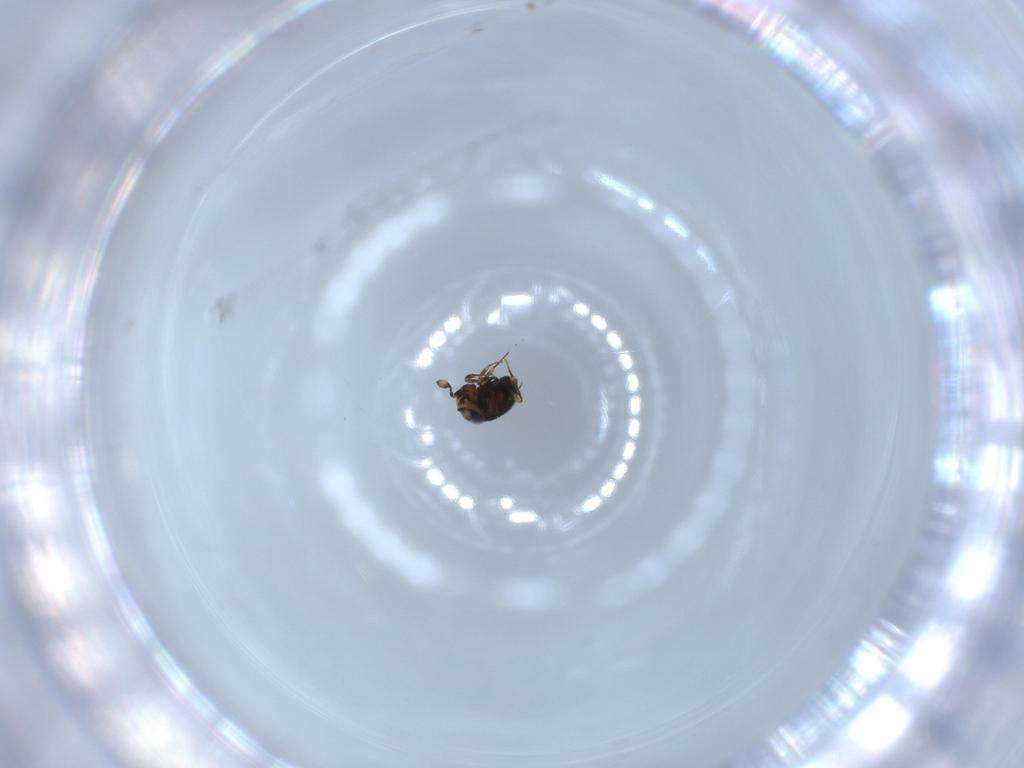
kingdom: Animalia
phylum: Arthropoda
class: Insecta
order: Hymenoptera
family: Scelionidae
